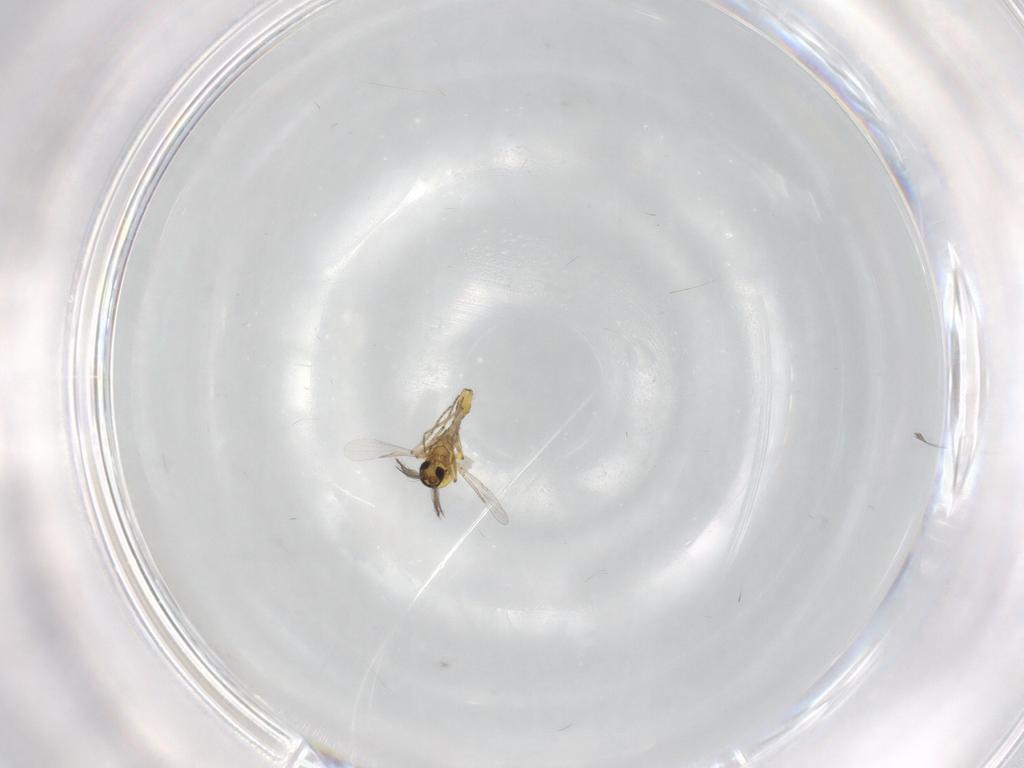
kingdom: Animalia
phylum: Arthropoda
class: Insecta
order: Diptera
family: Ceratopogonidae
